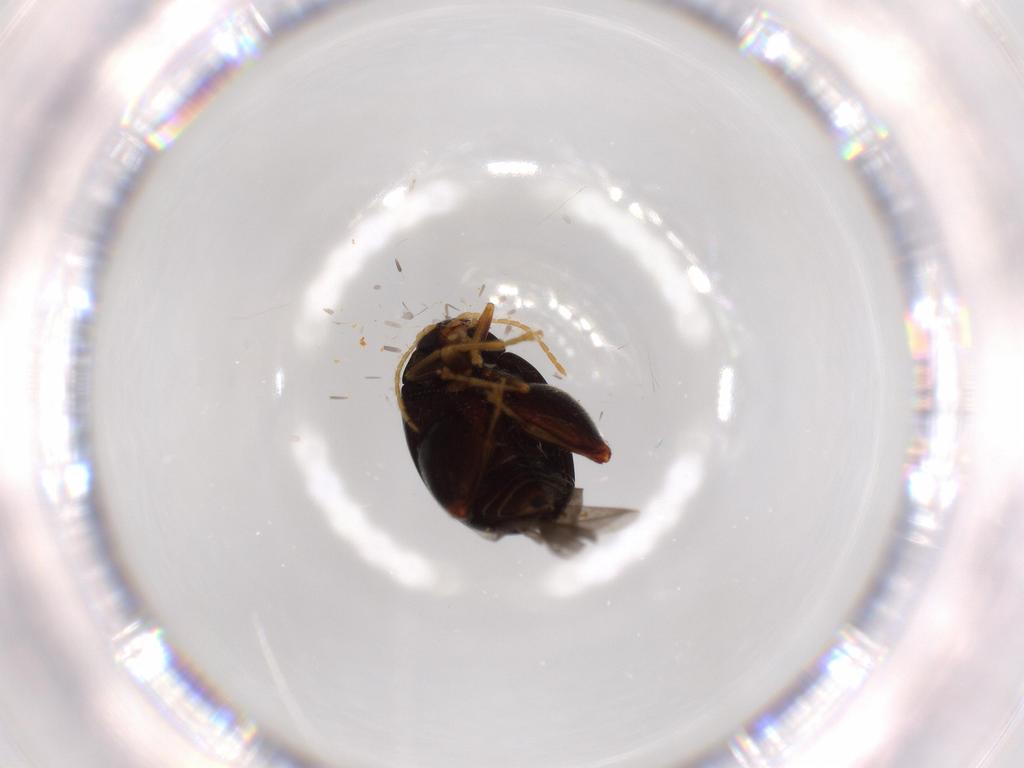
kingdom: Animalia
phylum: Arthropoda
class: Insecta
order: Coleoptera
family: Chrysomelidae
